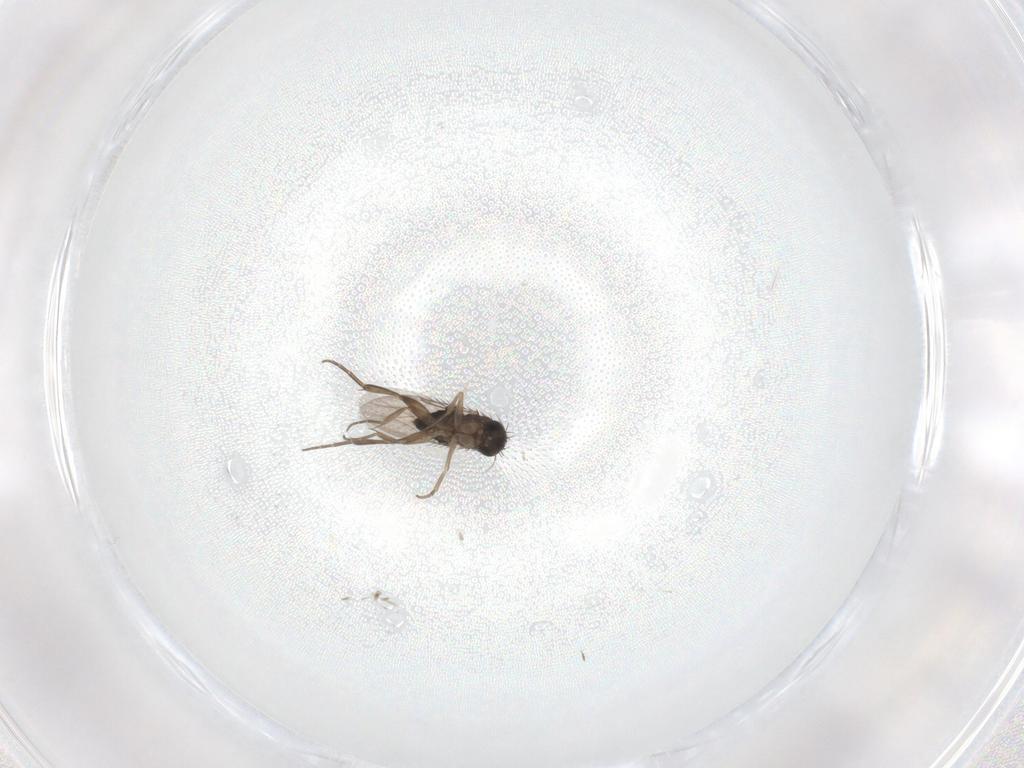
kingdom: Animalia
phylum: Arthropoda
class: Insecta
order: Diptera
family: Phoridae
